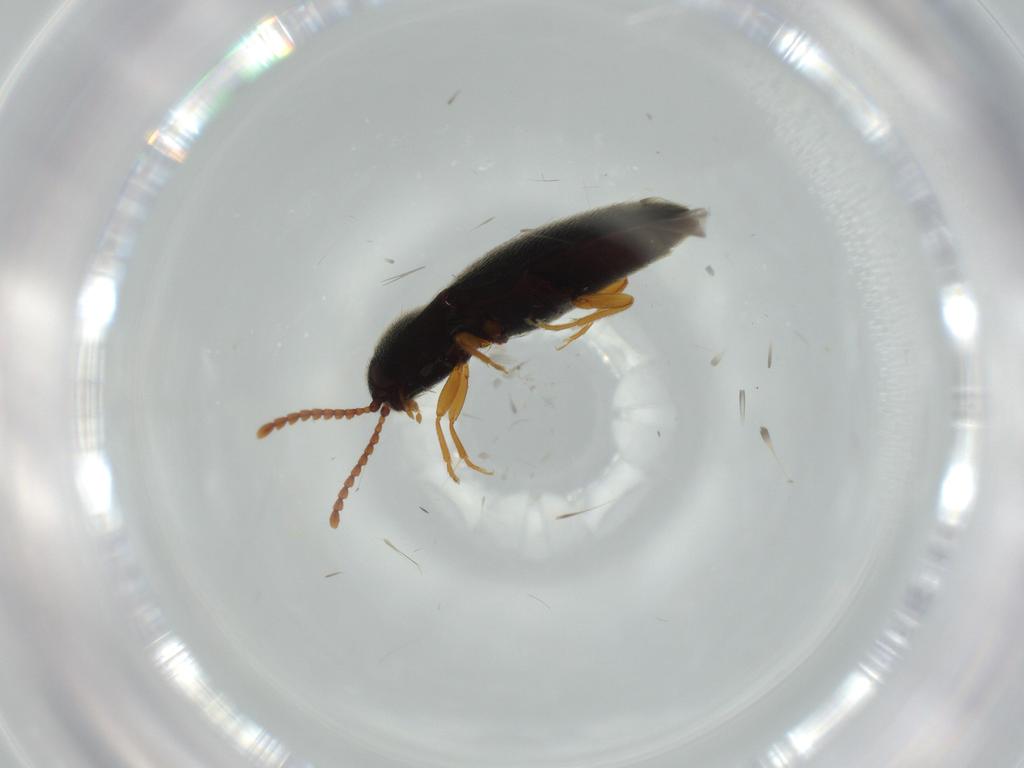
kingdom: Animalia
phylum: Arthropoda
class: Insecta
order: Coleoptera
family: Elateridae
